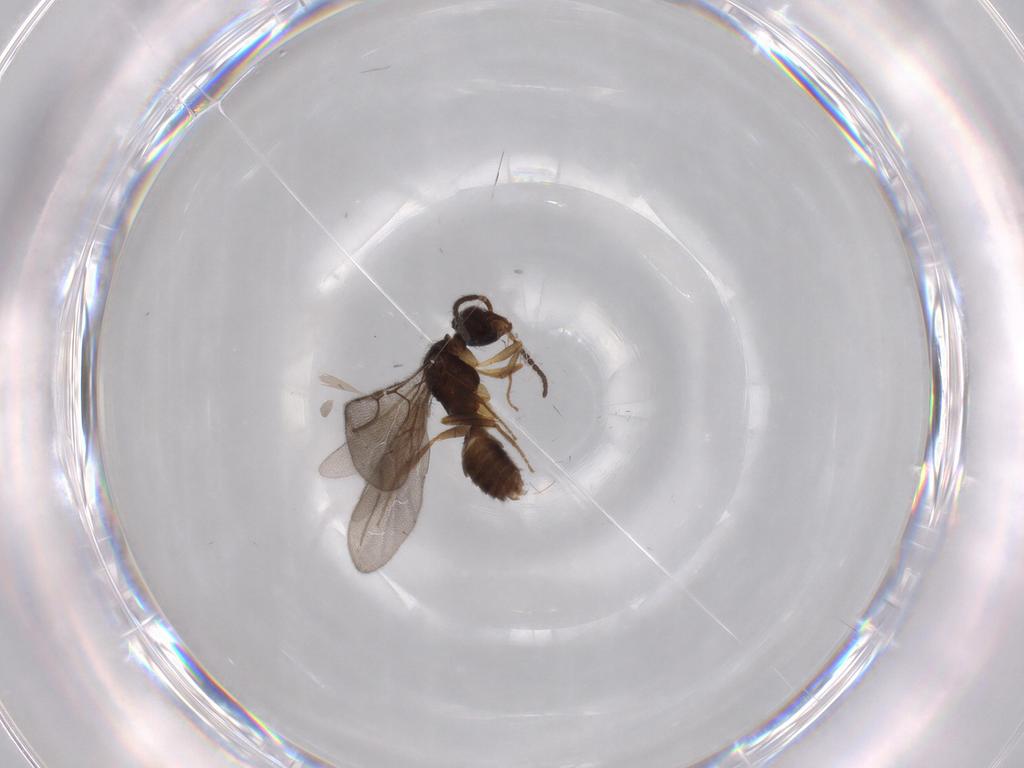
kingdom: Animalia
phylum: Arthropoda
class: Insecta
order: Hymenoptera
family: Bethylidae
